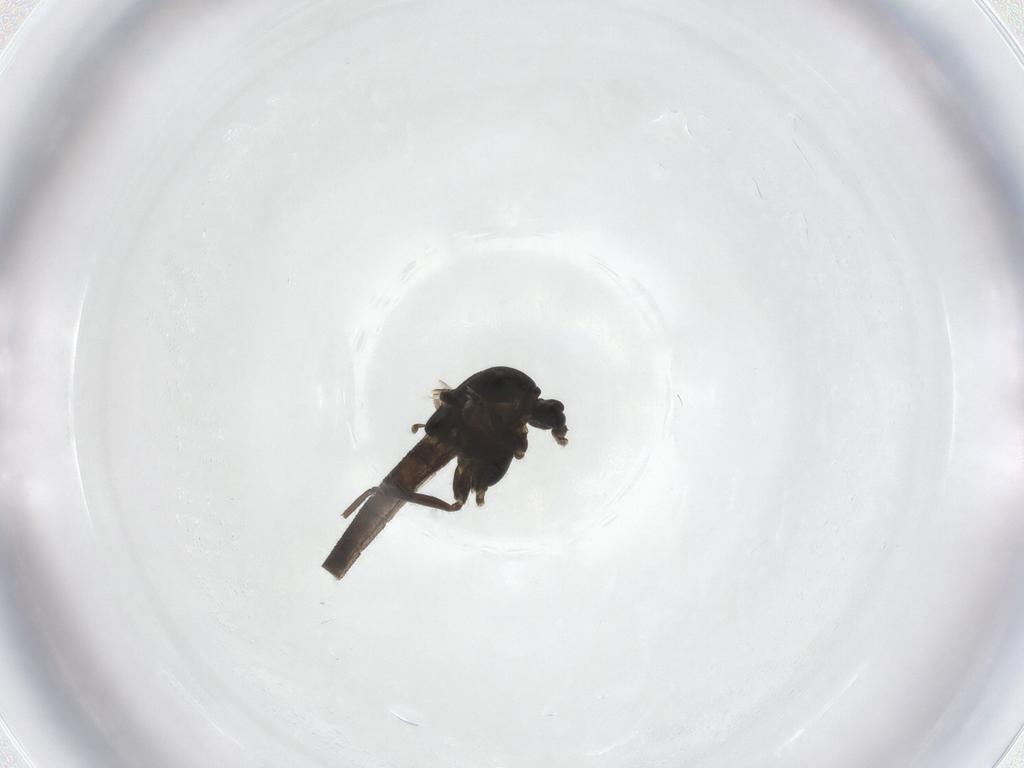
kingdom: Animalia
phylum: Arthropoda
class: Insecta
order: Diptera
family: Chironomidae
